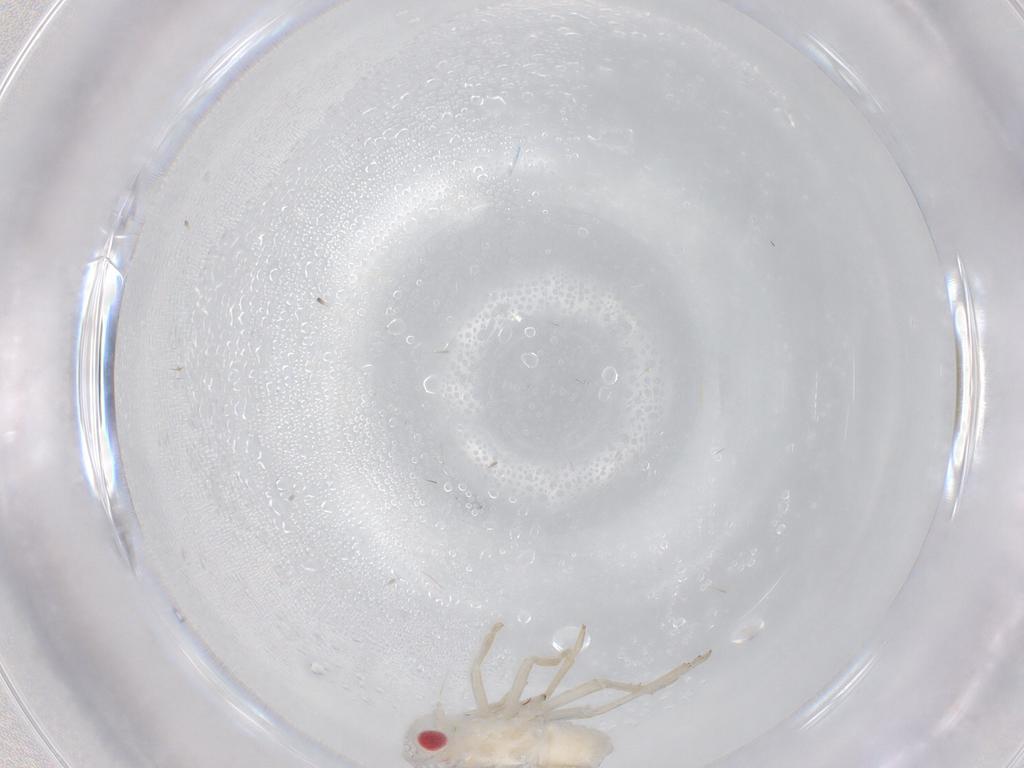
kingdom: Animalia
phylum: Arthropoda
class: Insecta
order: Hemiptera
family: Tropiduchidae
